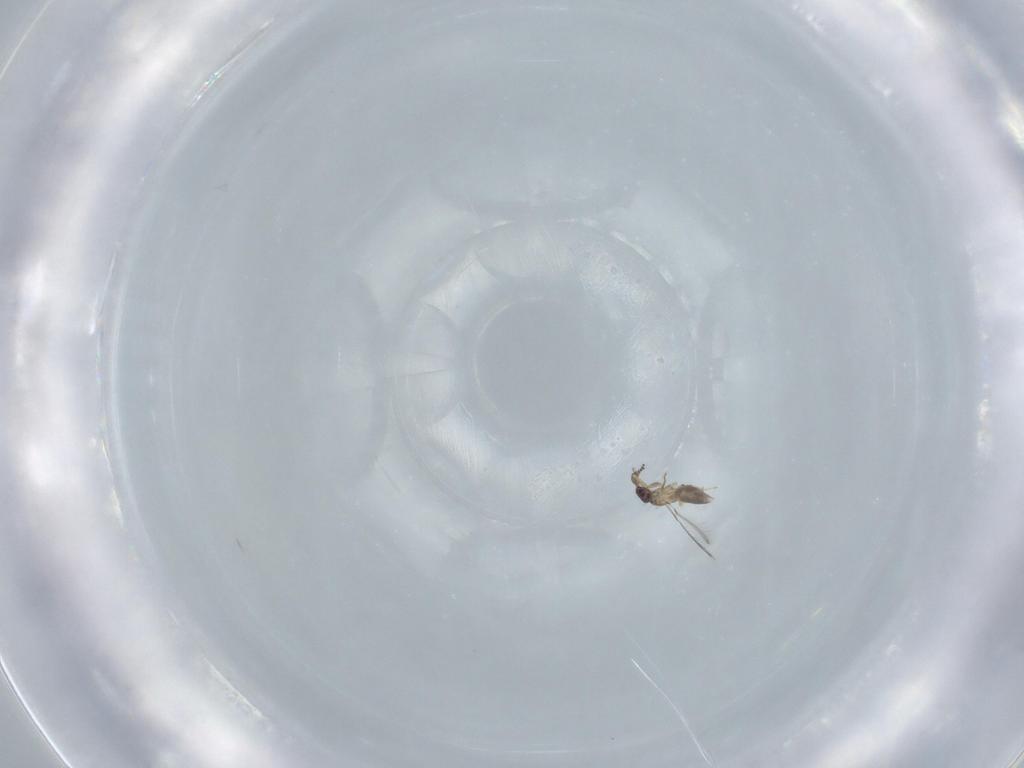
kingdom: Animalia
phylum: Arthropoda
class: Insecta
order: Hymenoptera
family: Mymaridae
